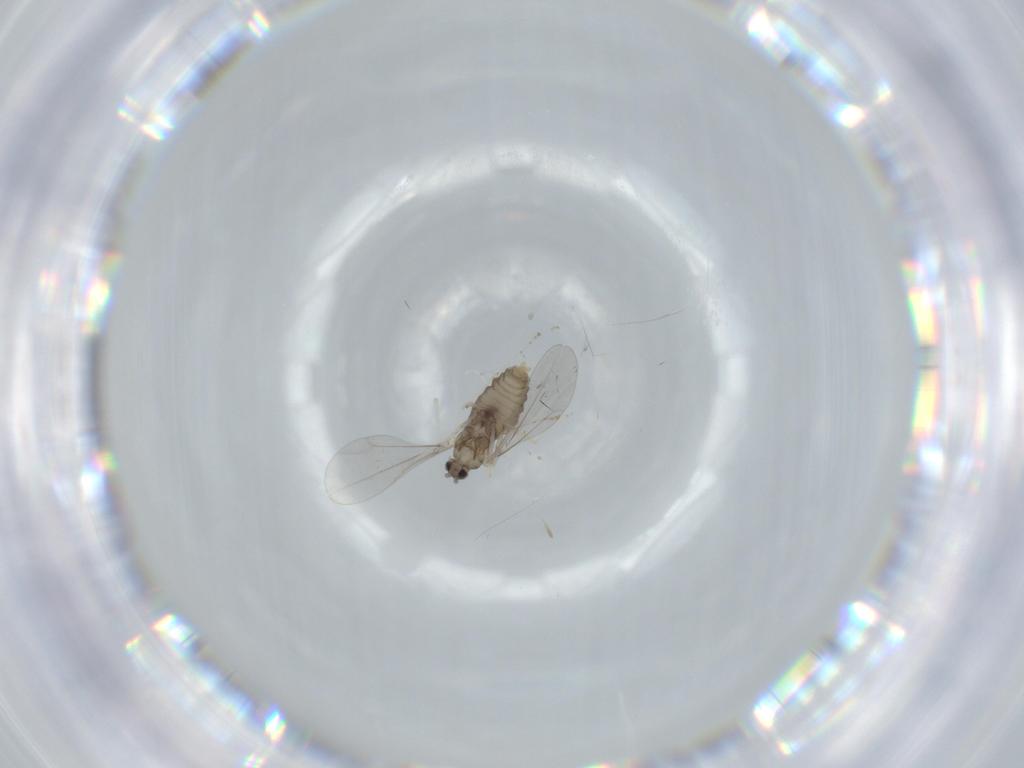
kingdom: Animalia
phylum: Arthropoda
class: Insecta
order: Diptera
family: Cecidomyiidae
